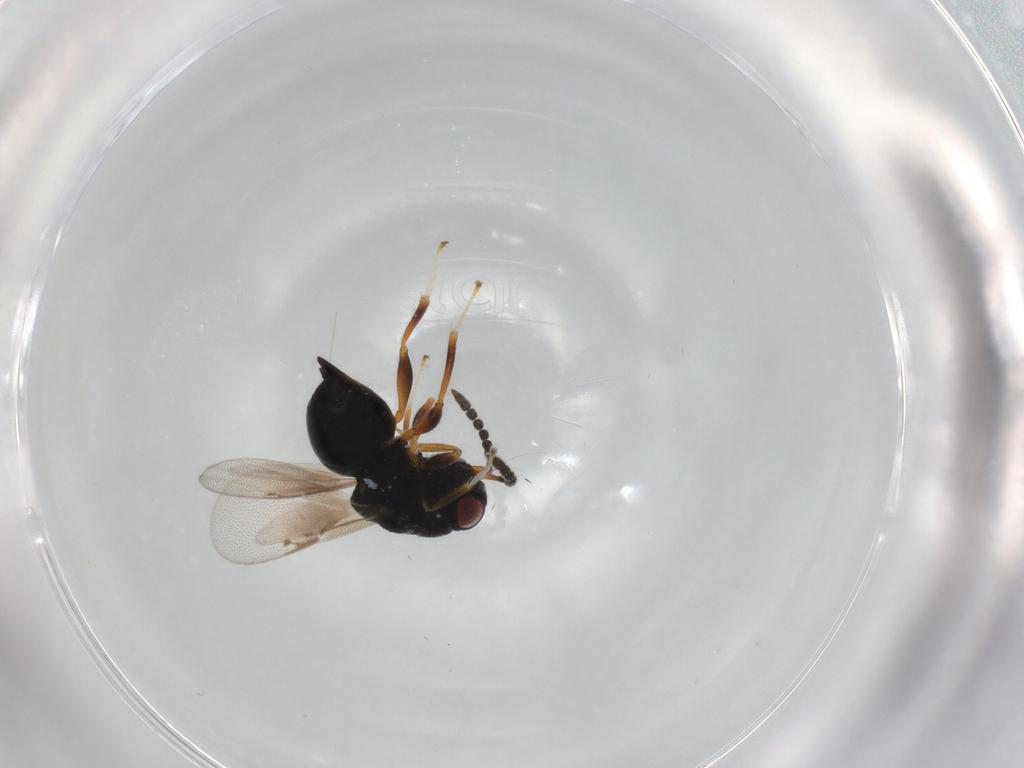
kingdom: Animalia
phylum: Arthropoda
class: Insecta
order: Hymenoptera
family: Eurytomidae
